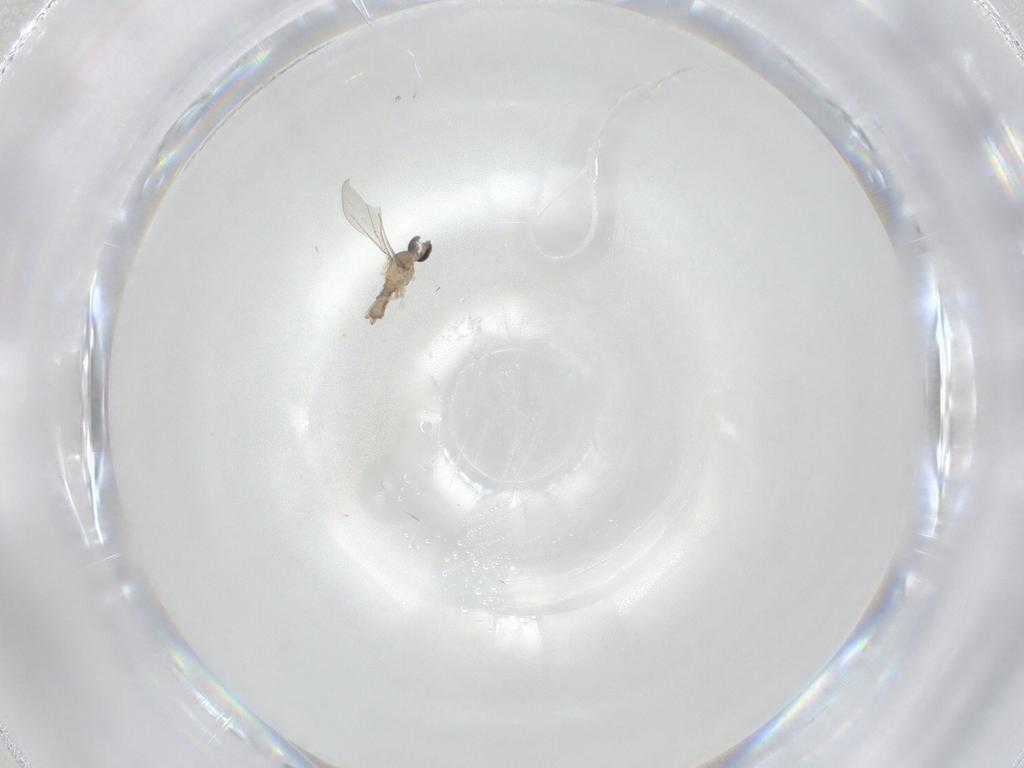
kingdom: Animalia
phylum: Arthropoda
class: Insecta
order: Diptera
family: Cecidomyiidae
